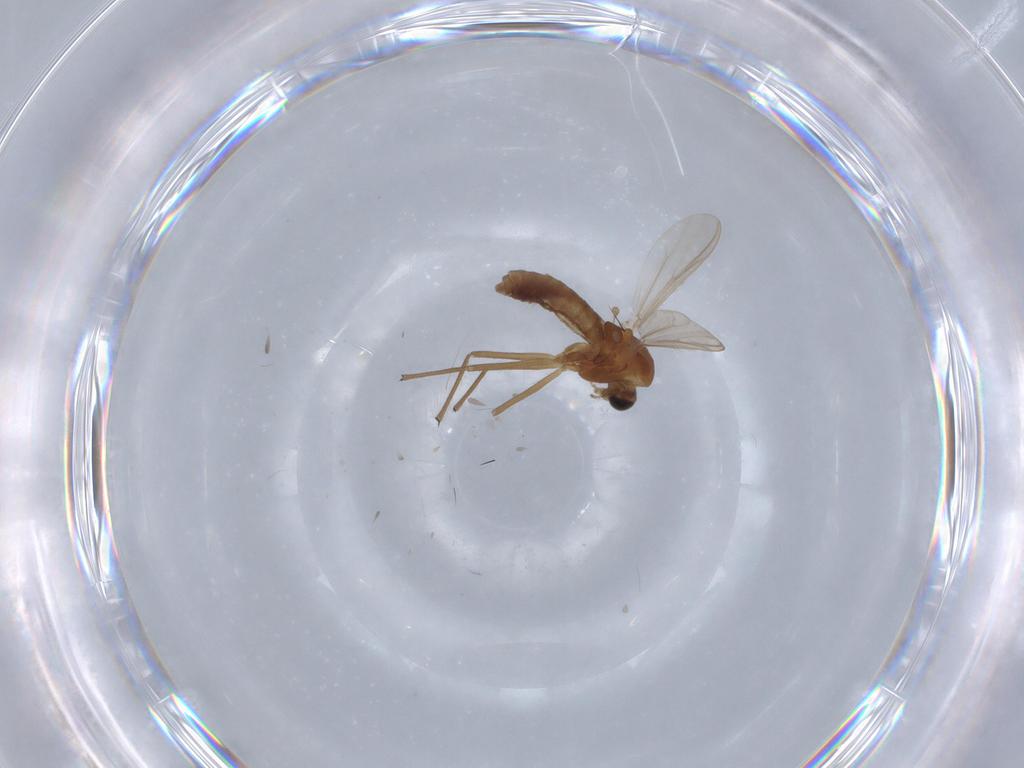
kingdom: Animalia
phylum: Arthropoda
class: Insecta
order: Diptera
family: Chironomidae
